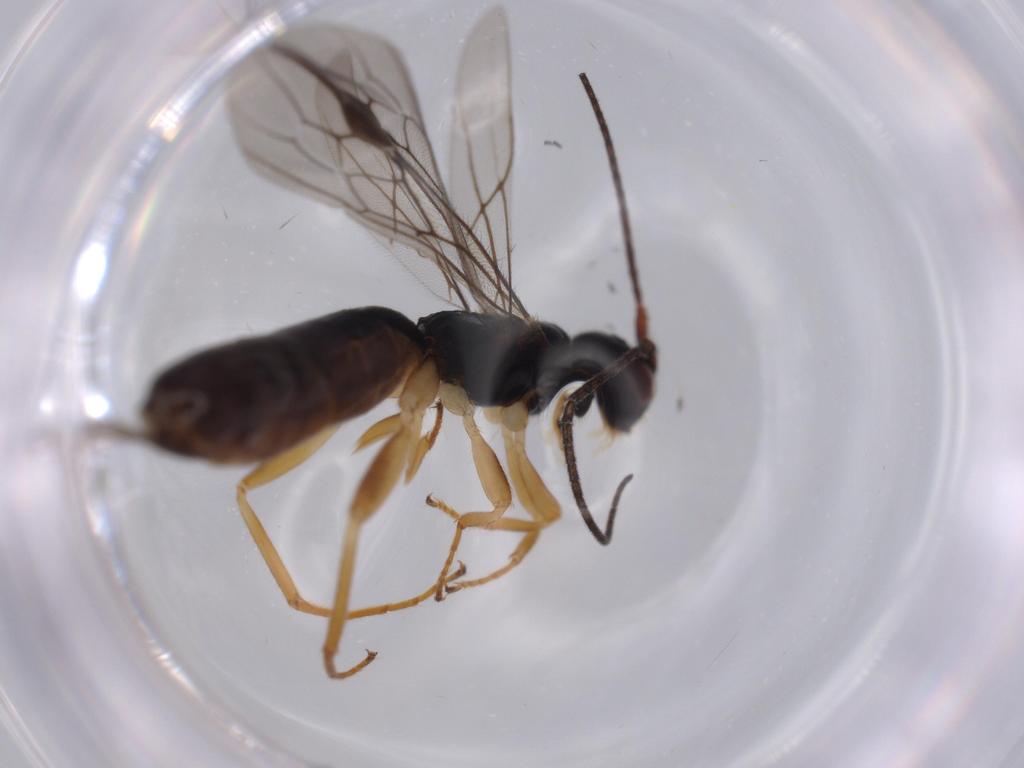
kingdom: Animalia
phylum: Arthropoda
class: Insecta
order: Hymenoptera
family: Braconidae
